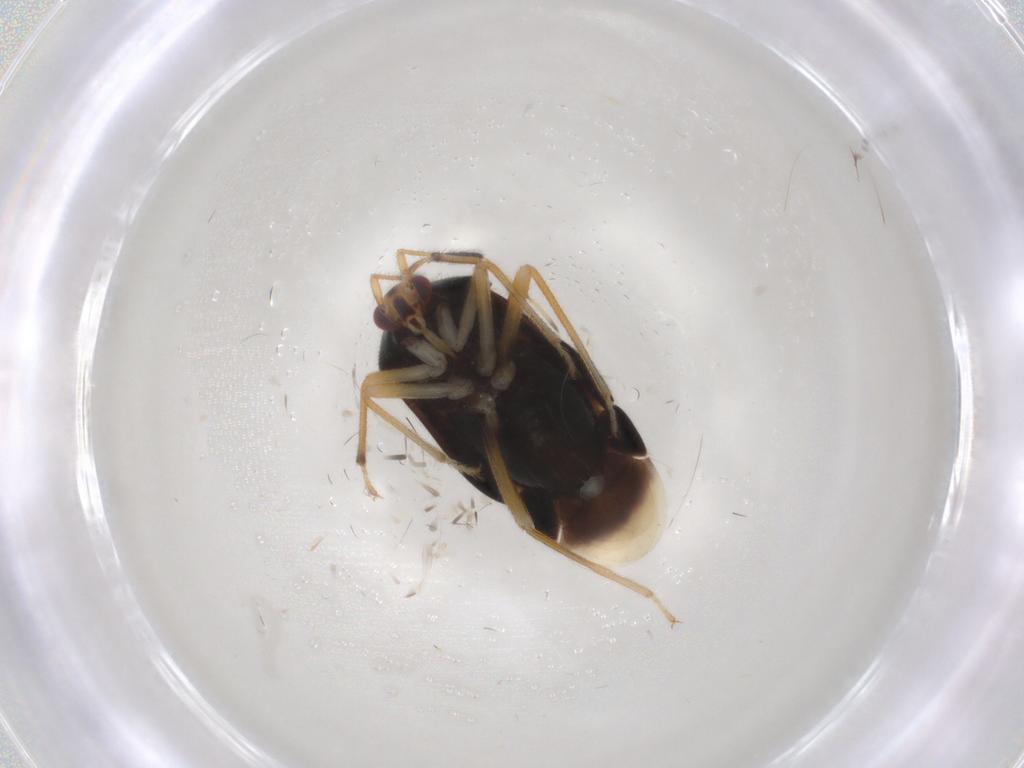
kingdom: Animalia
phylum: Arthropoda
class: Insecta
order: Hemiptera
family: Miridae
